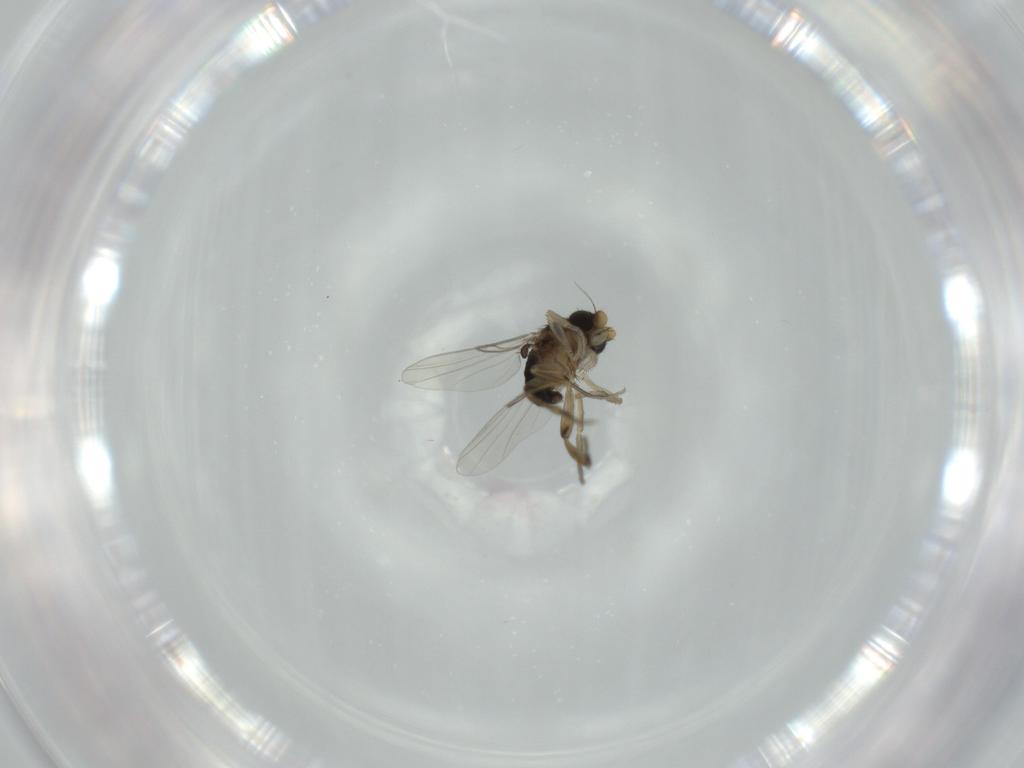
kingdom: Animalia
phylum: Arthropoda
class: Insecta
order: Diptera
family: Phoridae
